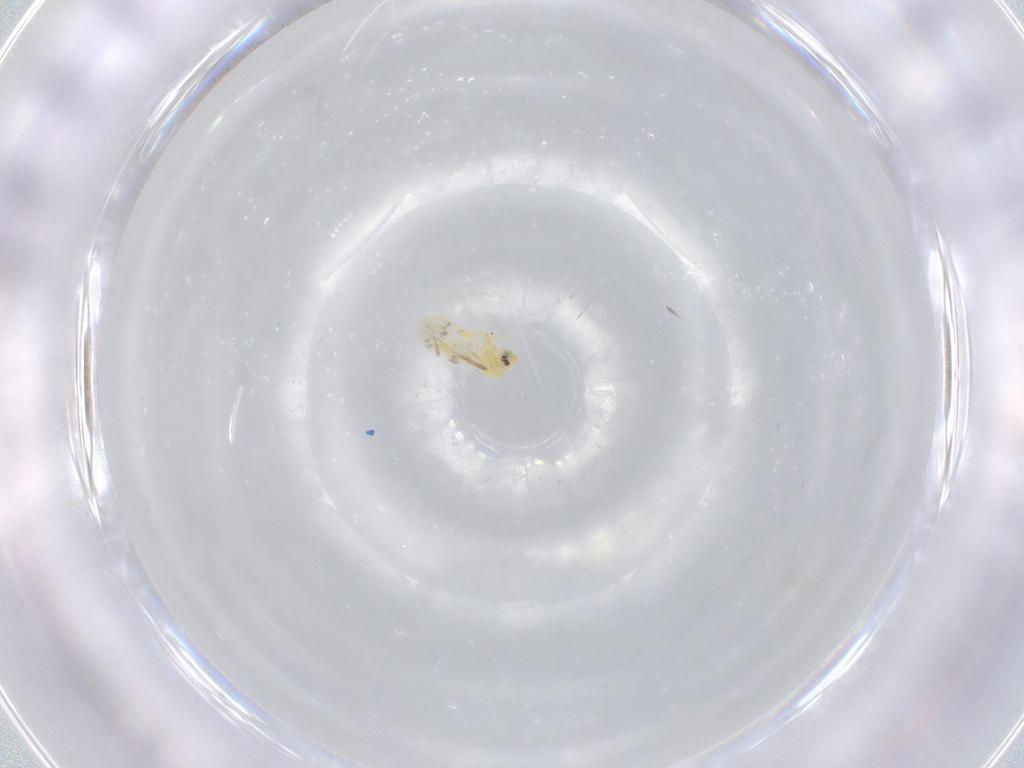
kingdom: Animalia
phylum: Arthropoda
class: Insecta
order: Hemiptera
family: Aleyrodidae
